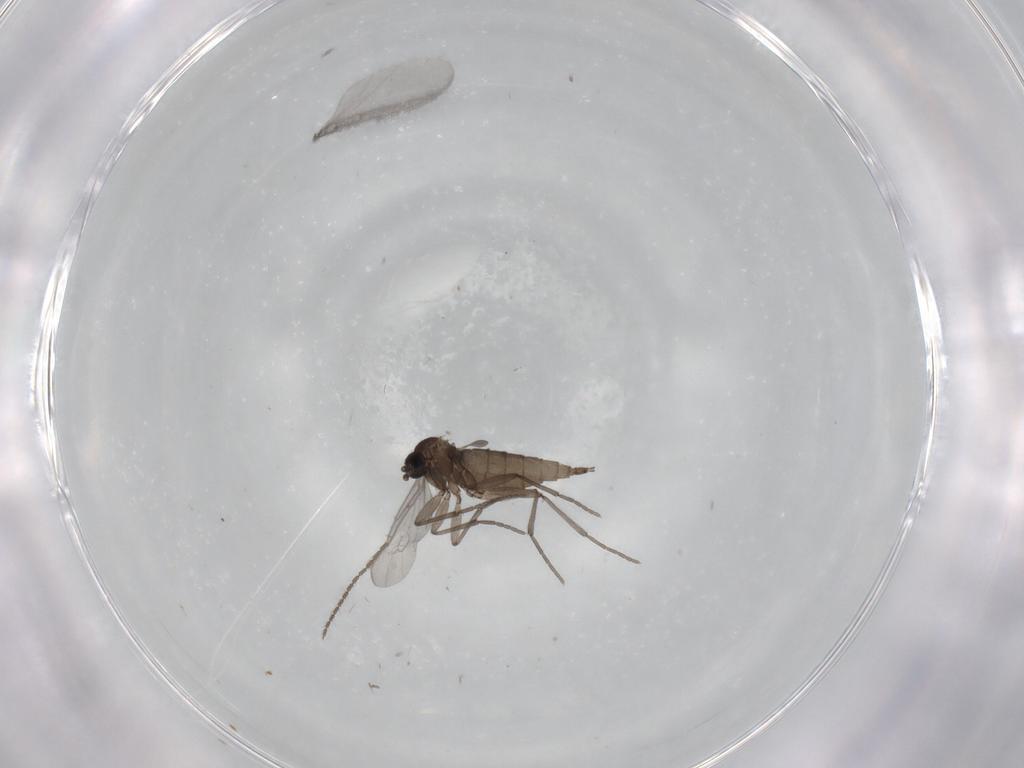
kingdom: Animalia
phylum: Arthropoda
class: Insecta
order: Diptera
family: Sciaridae
